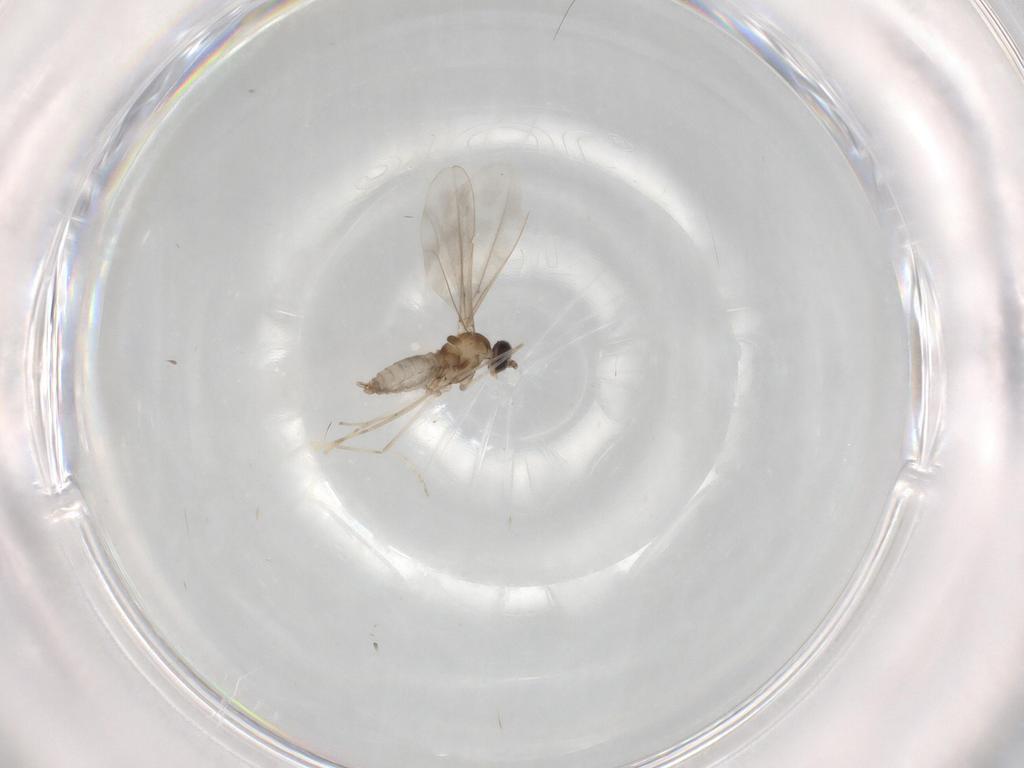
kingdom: Animalia
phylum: Arthropoda
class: Insecta
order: Diptera
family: Cecidomyiidae
